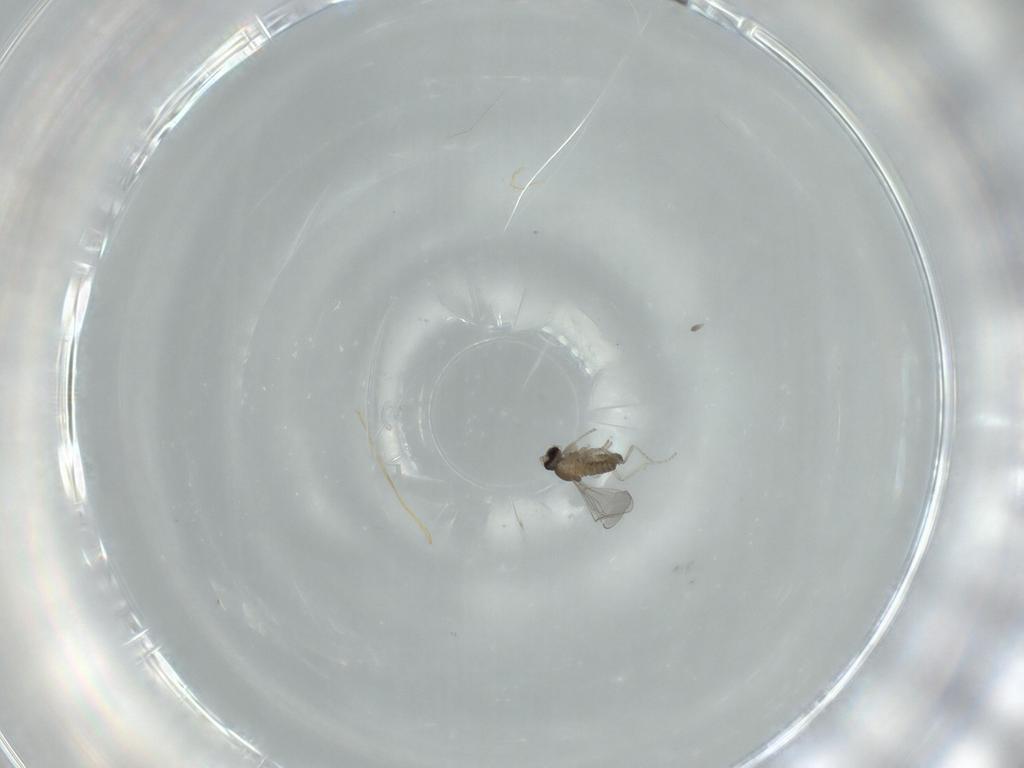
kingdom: Animalia
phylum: Arthropoda
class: Insecta
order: Diptera
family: Cecidomyiidae
